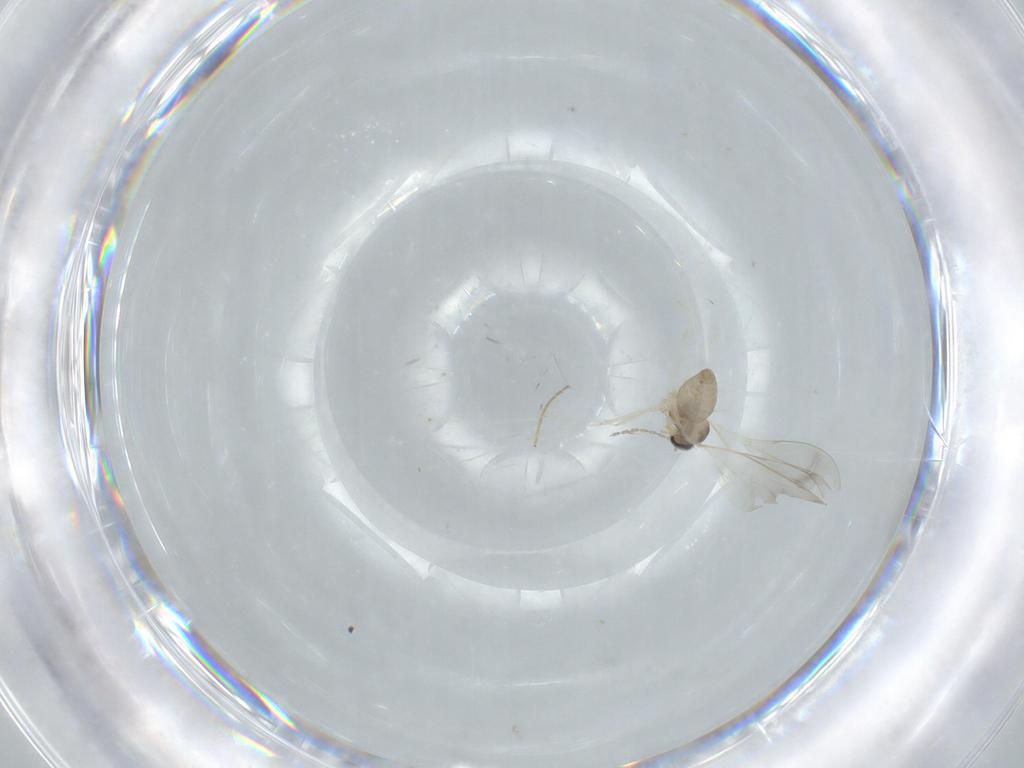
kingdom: Animalia
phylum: Arthropoda
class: Insecta
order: Diptera
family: Cecidomyiidae
